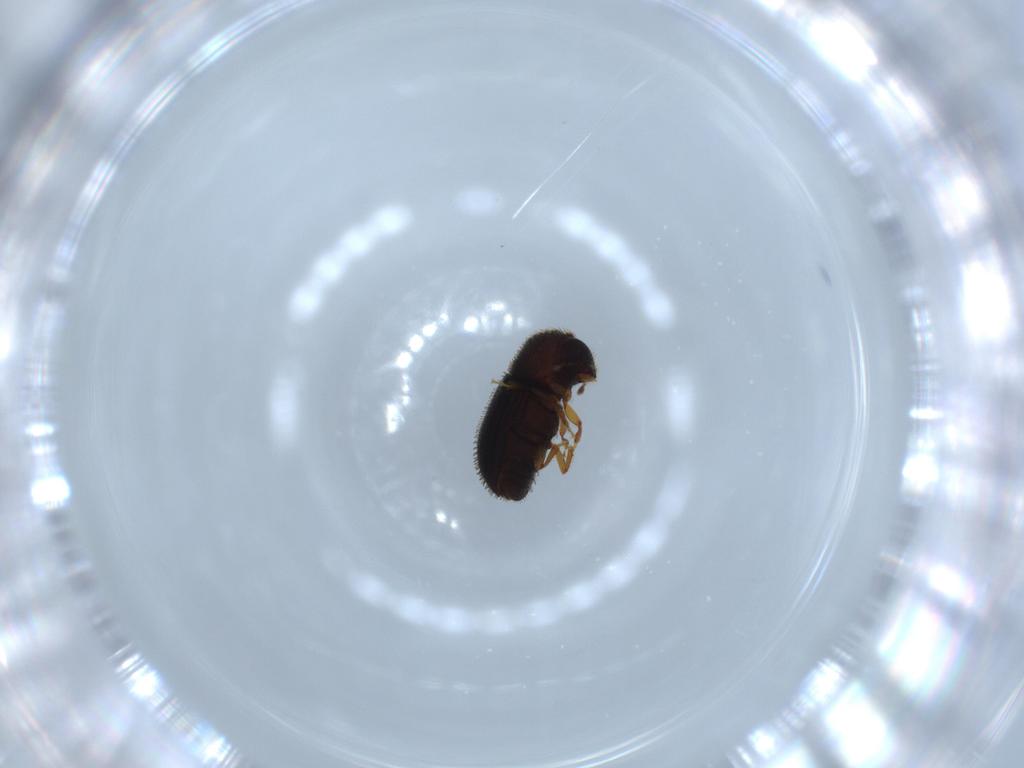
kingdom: Animalia
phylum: Arthropoda
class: Insecta
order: Coleoptera
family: Curculionidae
